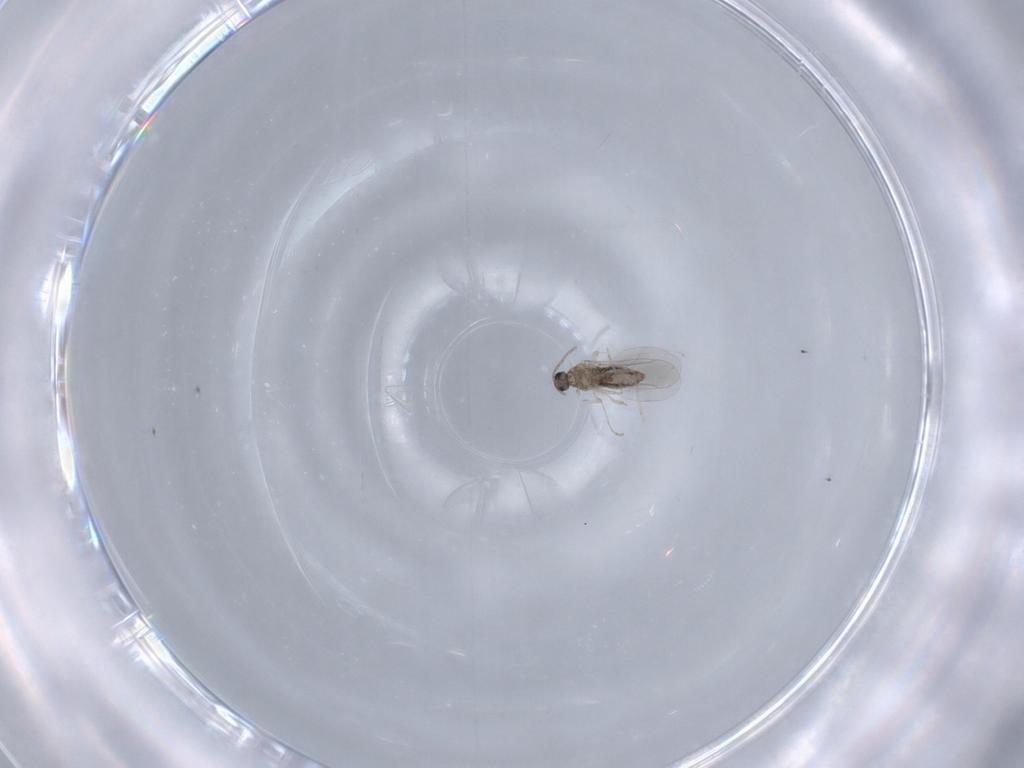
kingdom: Animalia
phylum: Arthropoda
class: Insecta
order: Diptera
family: Cecidomyiidae
